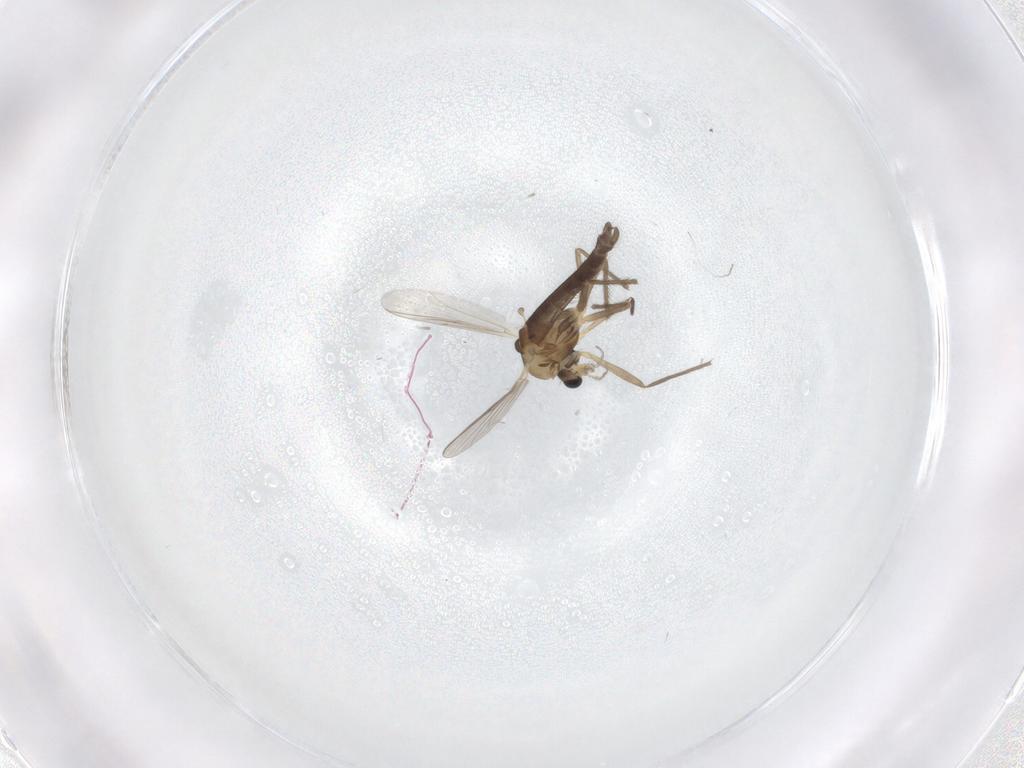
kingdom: Animalia
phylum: Arthropoda
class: Insecta
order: Diptera
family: Chironomidae
